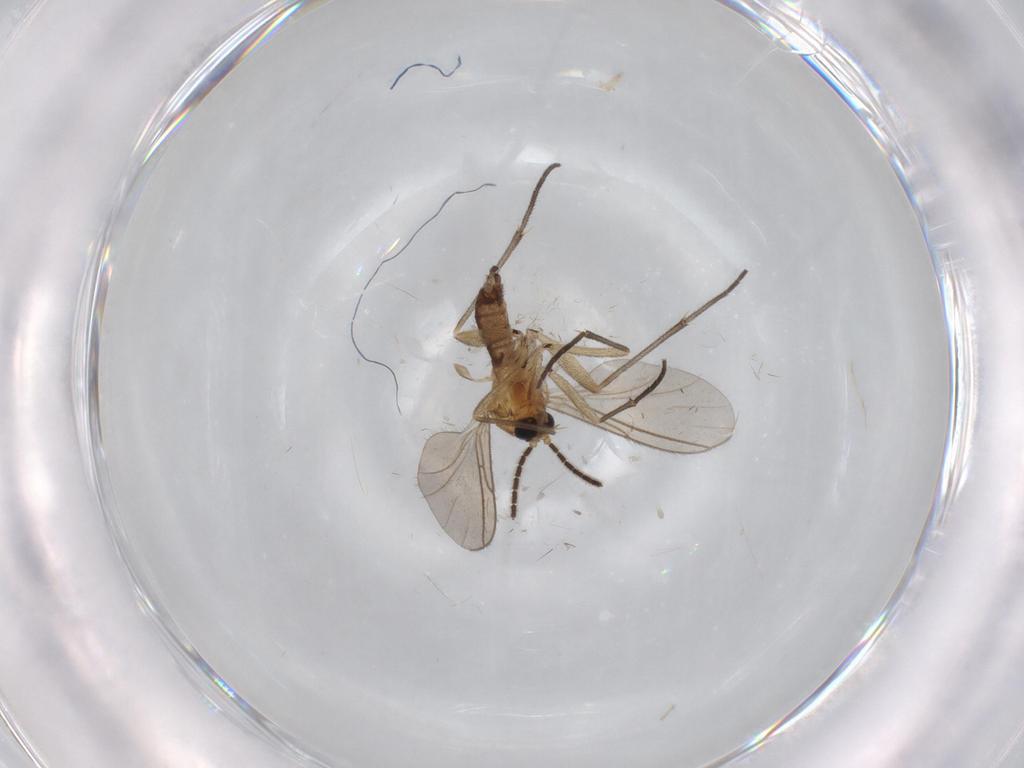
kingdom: Animalia
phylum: Arthropoda
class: Insecta
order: Diptera
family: Sciaridae
